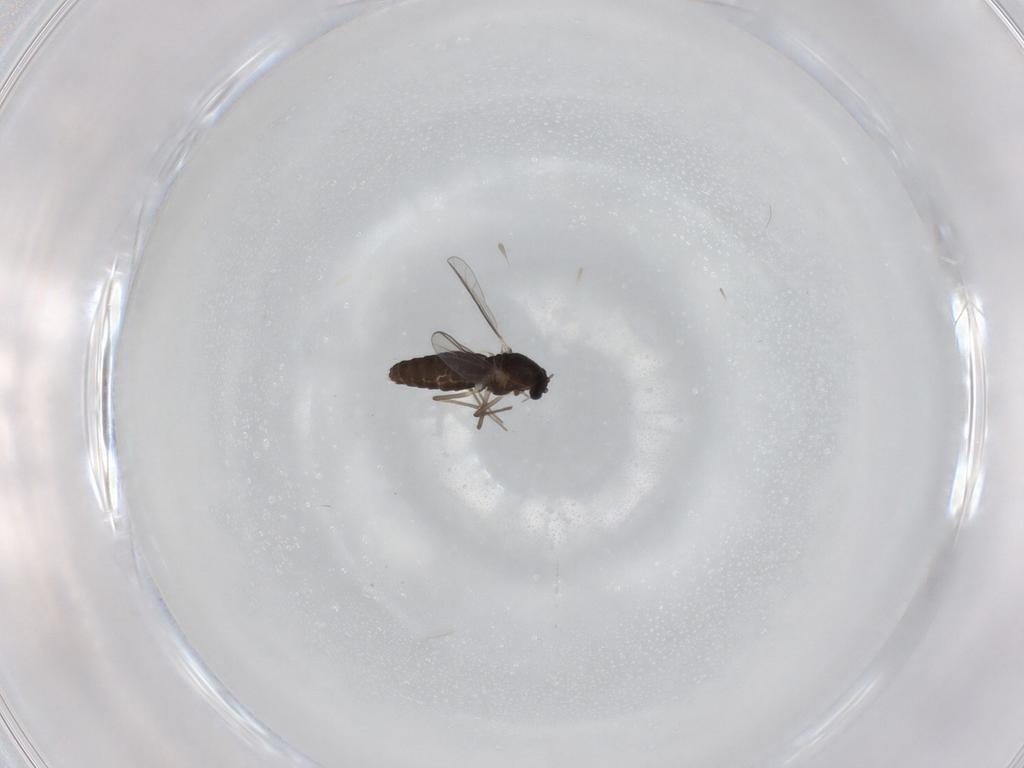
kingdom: Animalia
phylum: Arthropoda
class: Insecta
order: Diptera
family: Chironomidae
